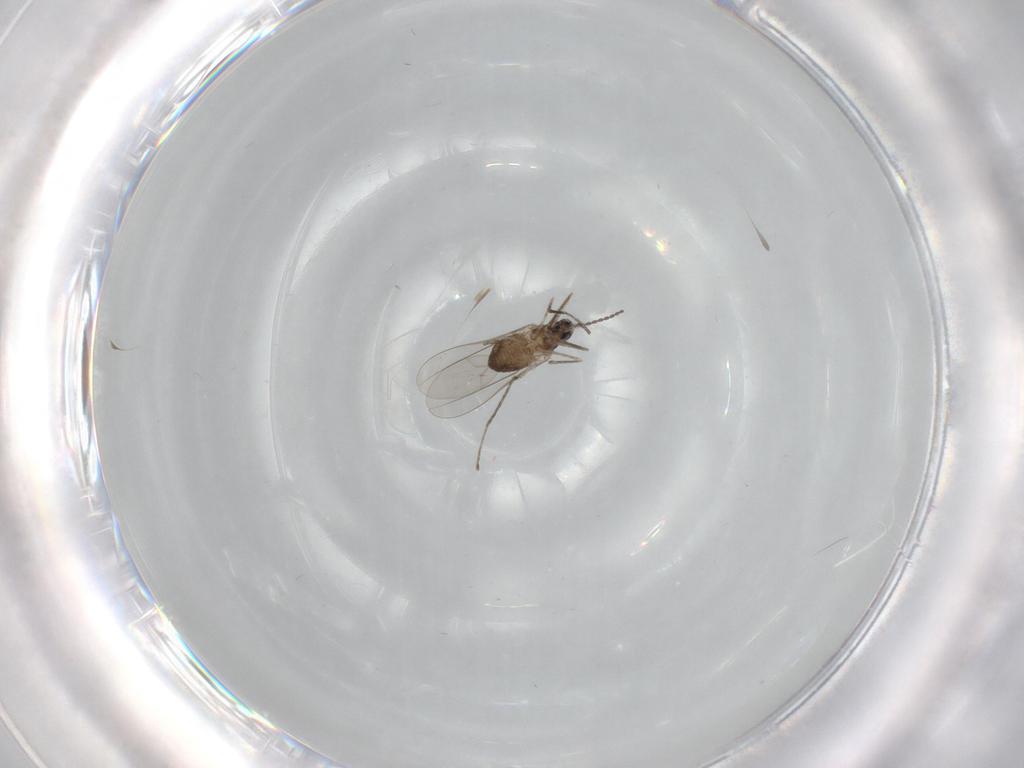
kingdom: Animalia
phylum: Arthropoda
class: Insecta
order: Diptera
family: Cecidomyiidae
